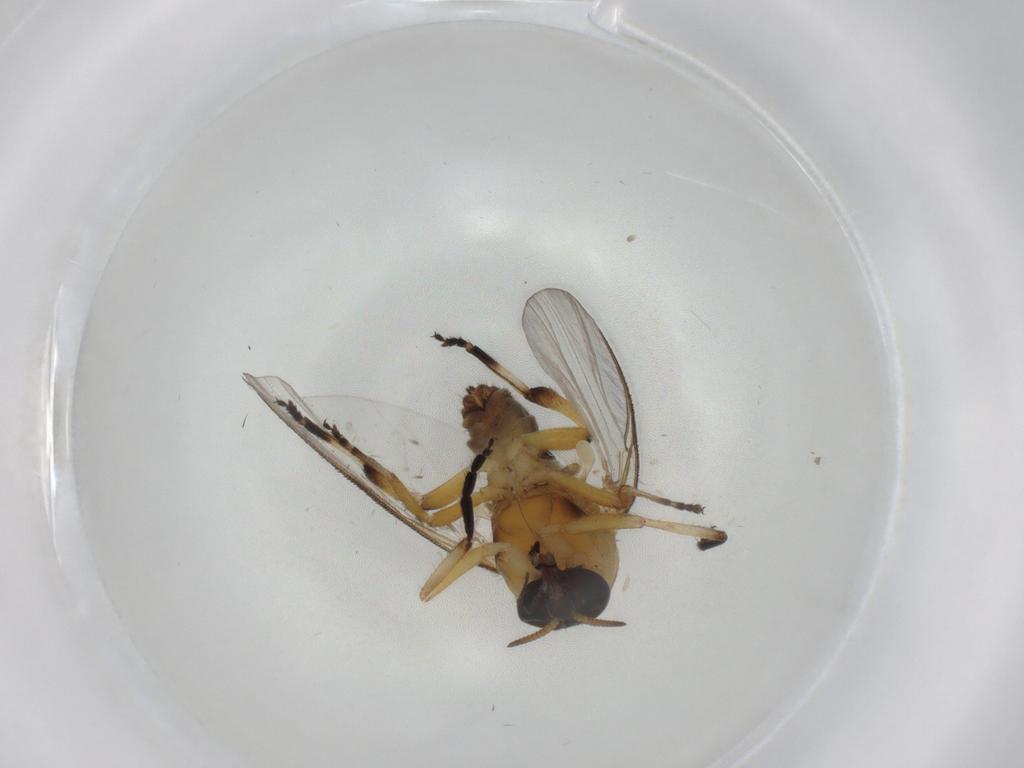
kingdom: Animalia
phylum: Arthropoda
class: Insecta
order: Diptera
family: Simuliidae
